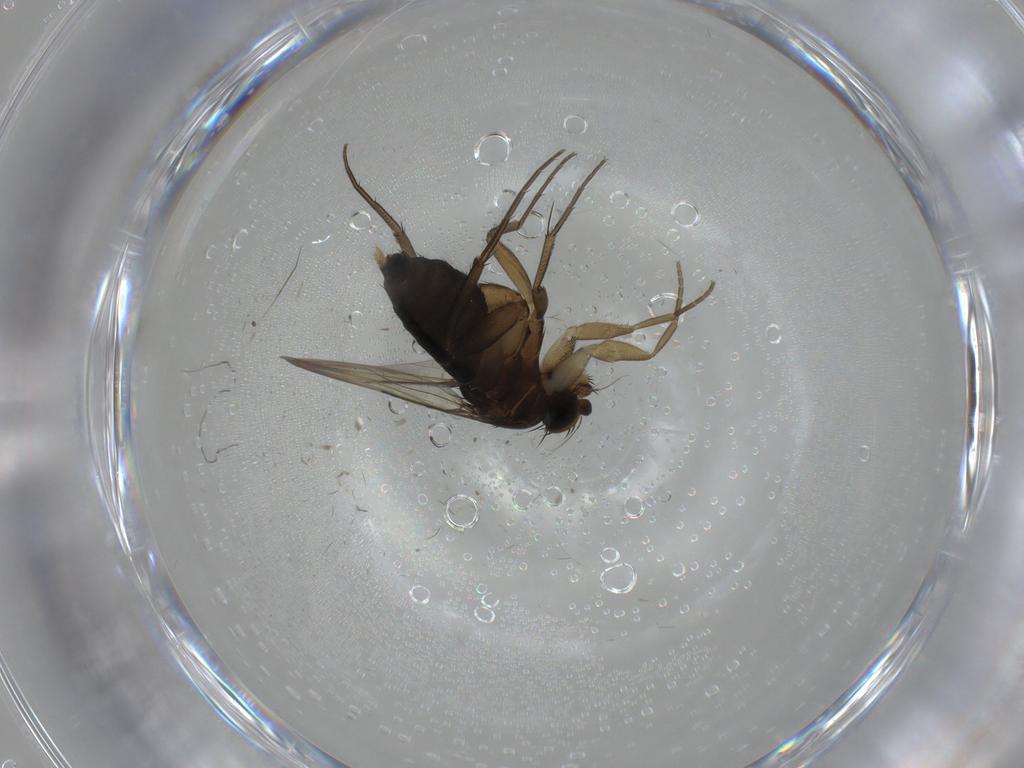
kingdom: Animalia
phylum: Arthropoda
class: Insecta
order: Diptera
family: Phoridae
